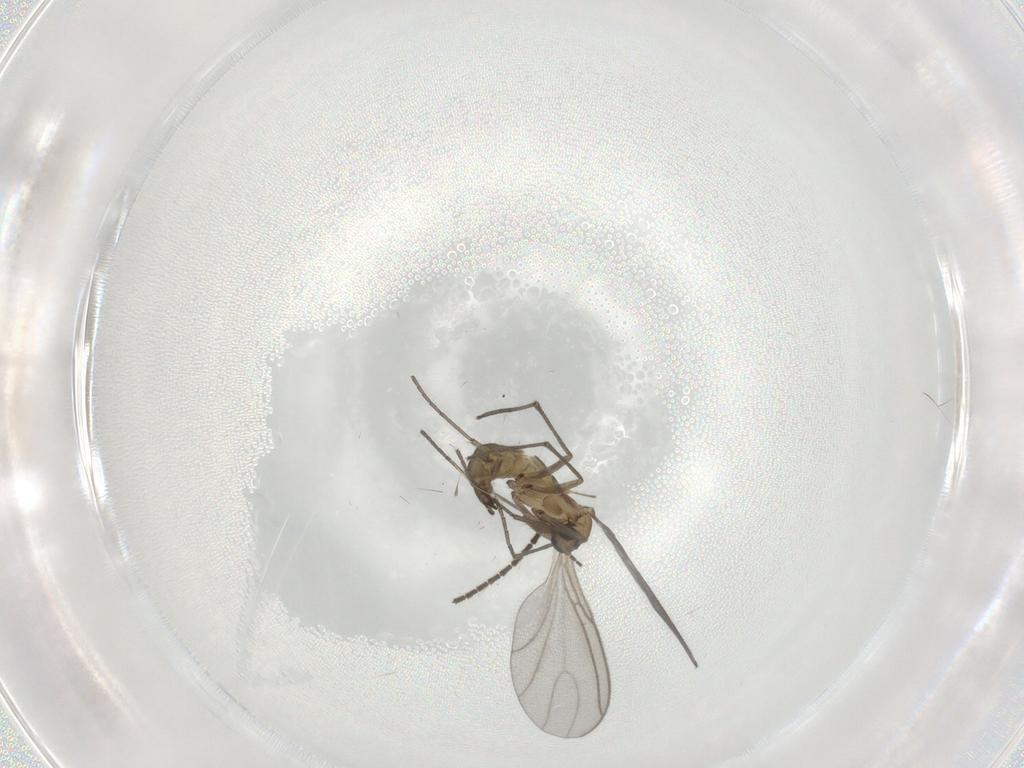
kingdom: Animalia
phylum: Arthropoda
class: Insecta
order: Diptera
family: Sciaridae
